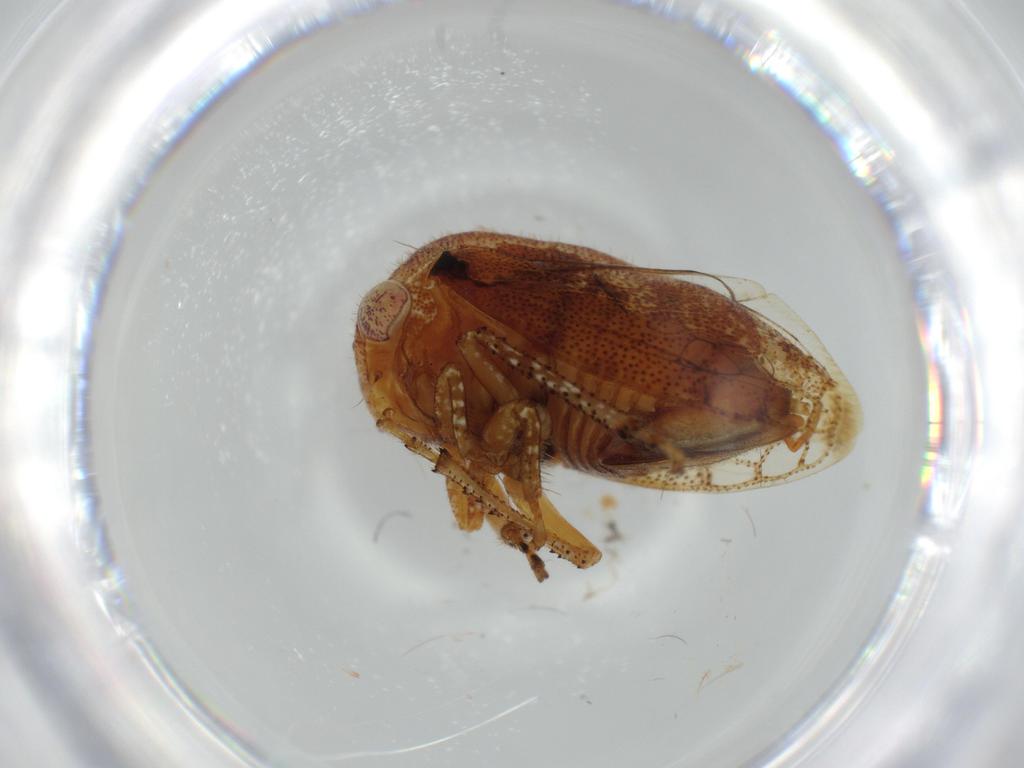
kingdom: Animalia
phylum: Arthropoda
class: Insecta
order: Hemiptera
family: Membracidae
